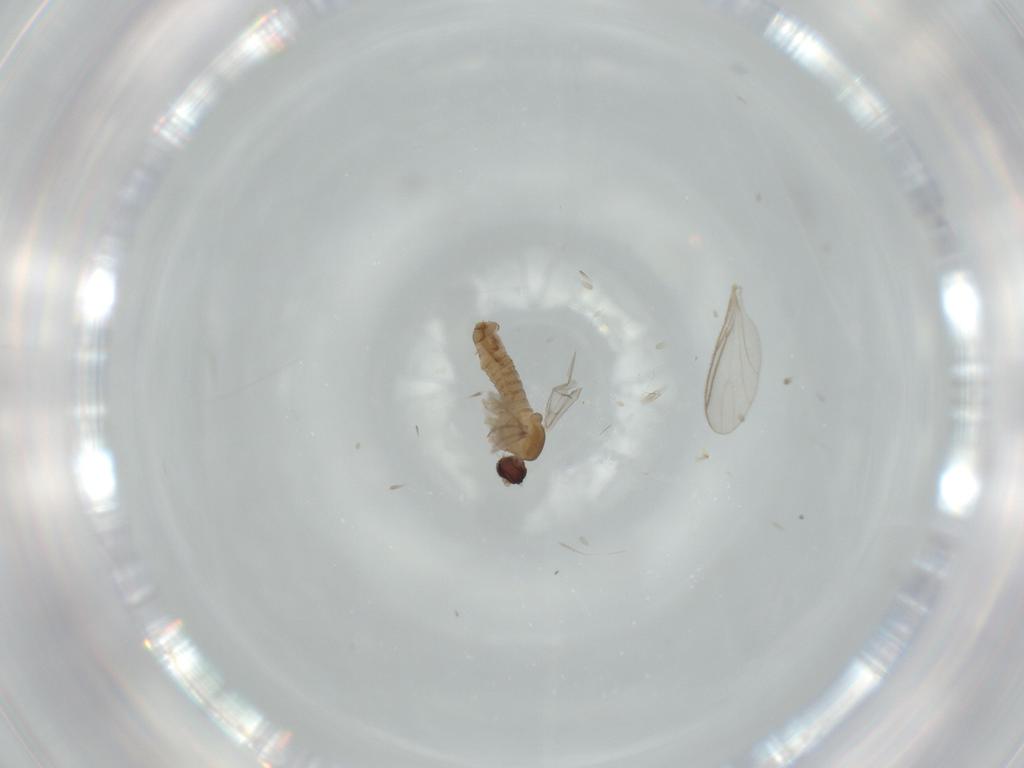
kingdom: Animalia
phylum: Arthropoda
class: Insecta
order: Diptera
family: Sciaridae
